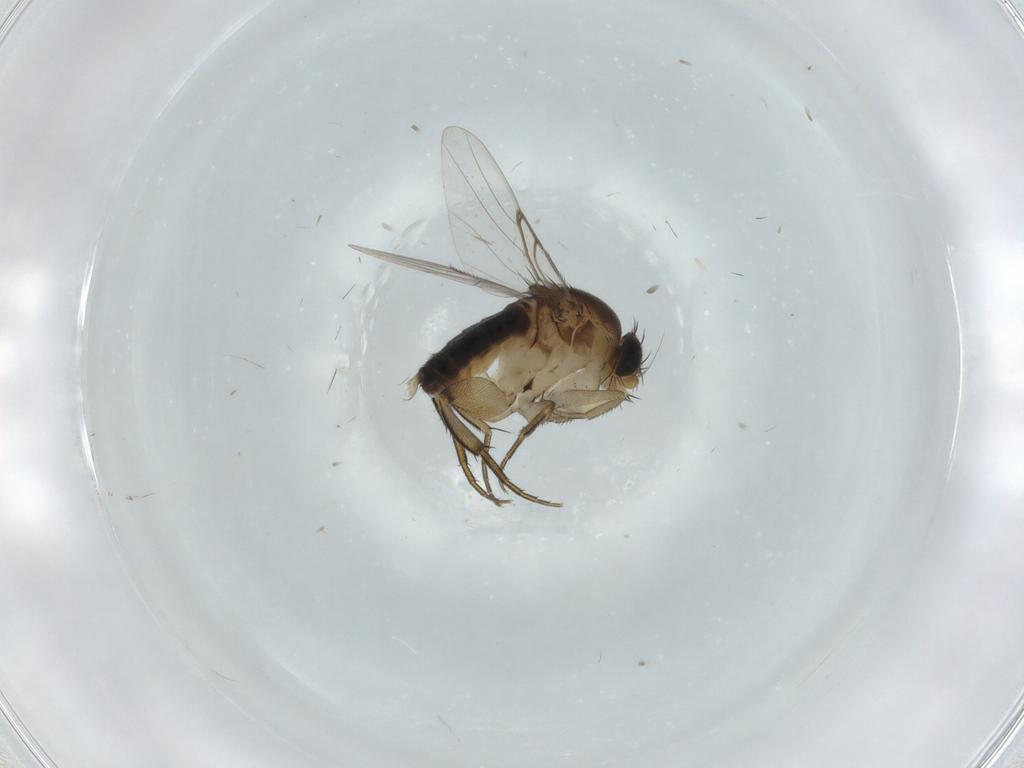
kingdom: Animalia
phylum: Arthropoda
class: Insecta
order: Diptera
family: Phoridae
